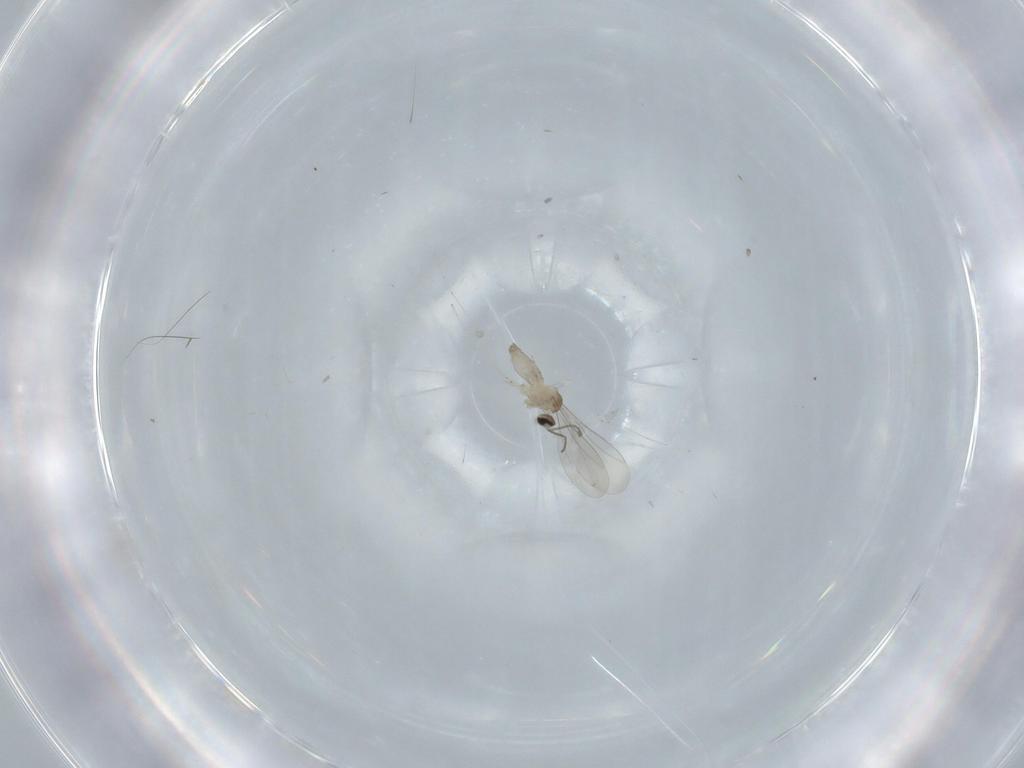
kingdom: Animalia
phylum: Arthropoda
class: Insecta
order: Diptera
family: Cecidomyiidae
